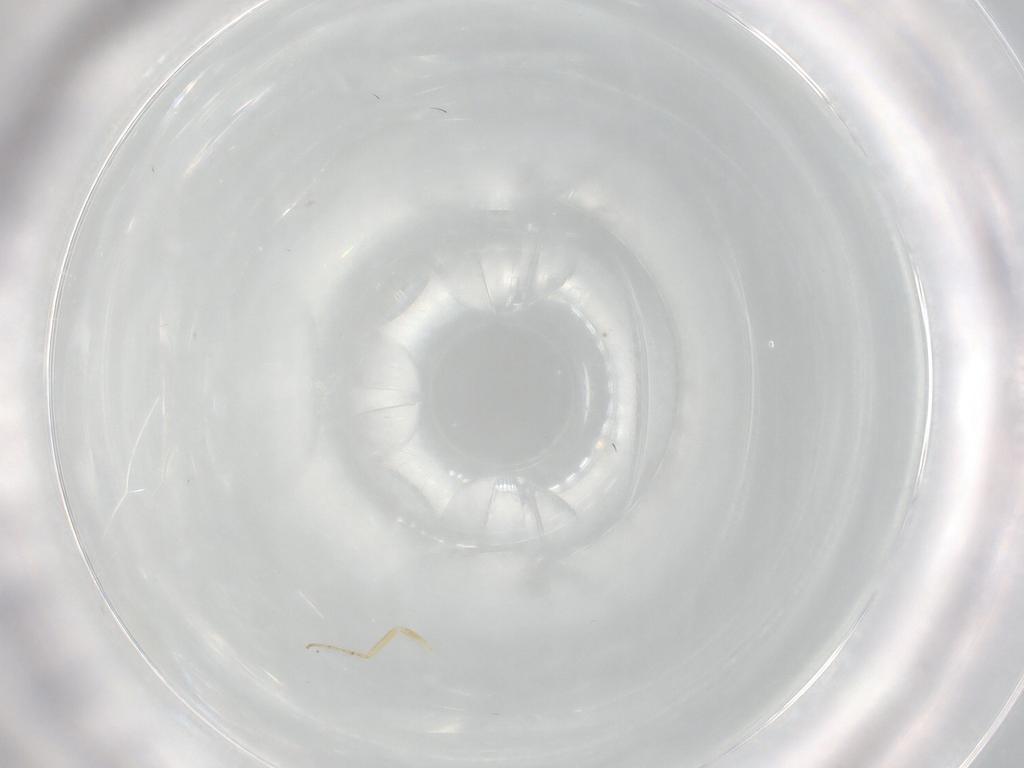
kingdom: Animalia
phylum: Arthropoda
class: Insecta
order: Diptera
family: Ceratopogonidae
